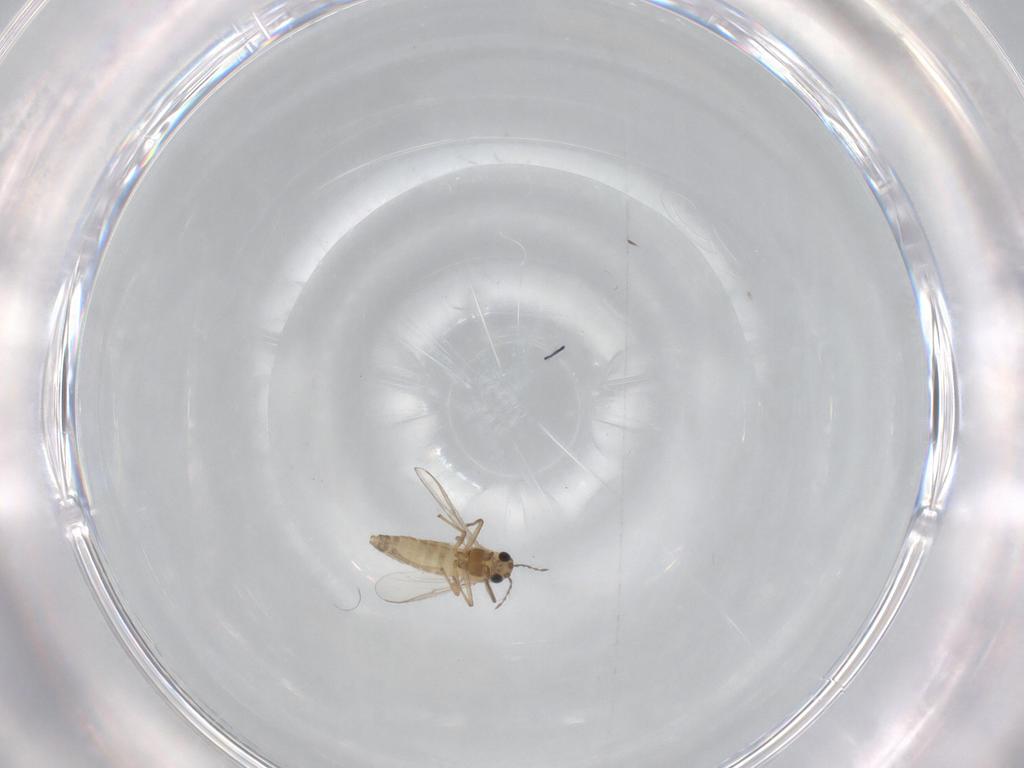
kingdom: Animalia
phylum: Arthropoda
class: Insecta
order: Diptera
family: Chironomidae
